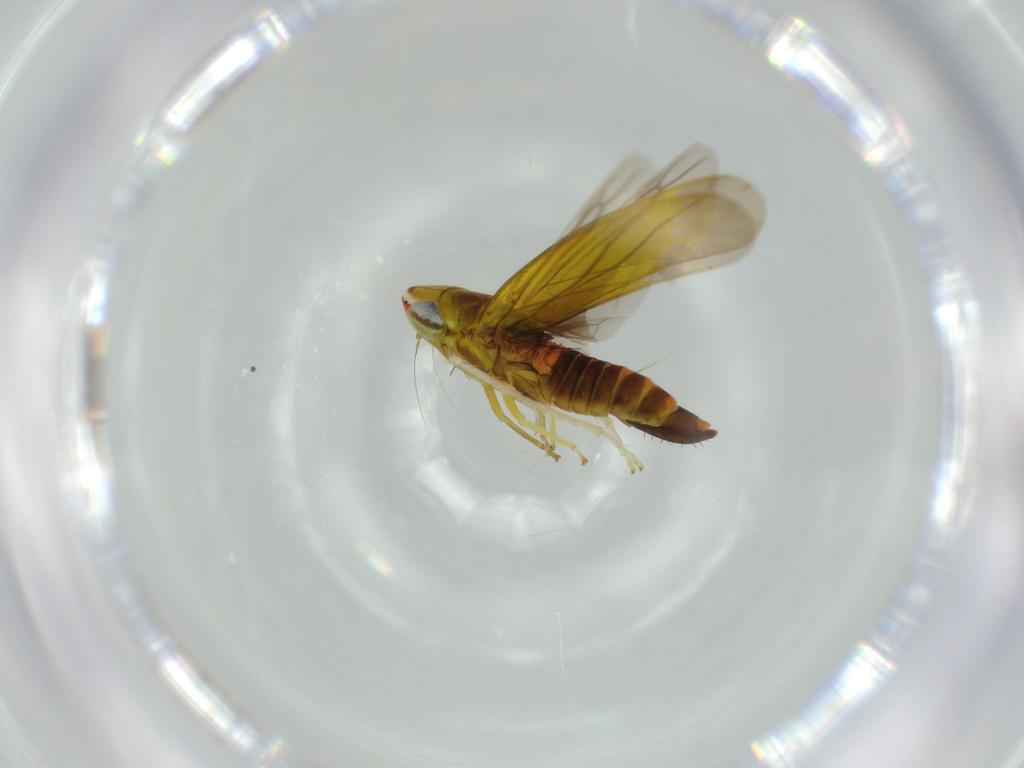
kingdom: Animalia
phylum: Arthropoda
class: Insecta
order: Hemiptera
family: Cicadellidae
